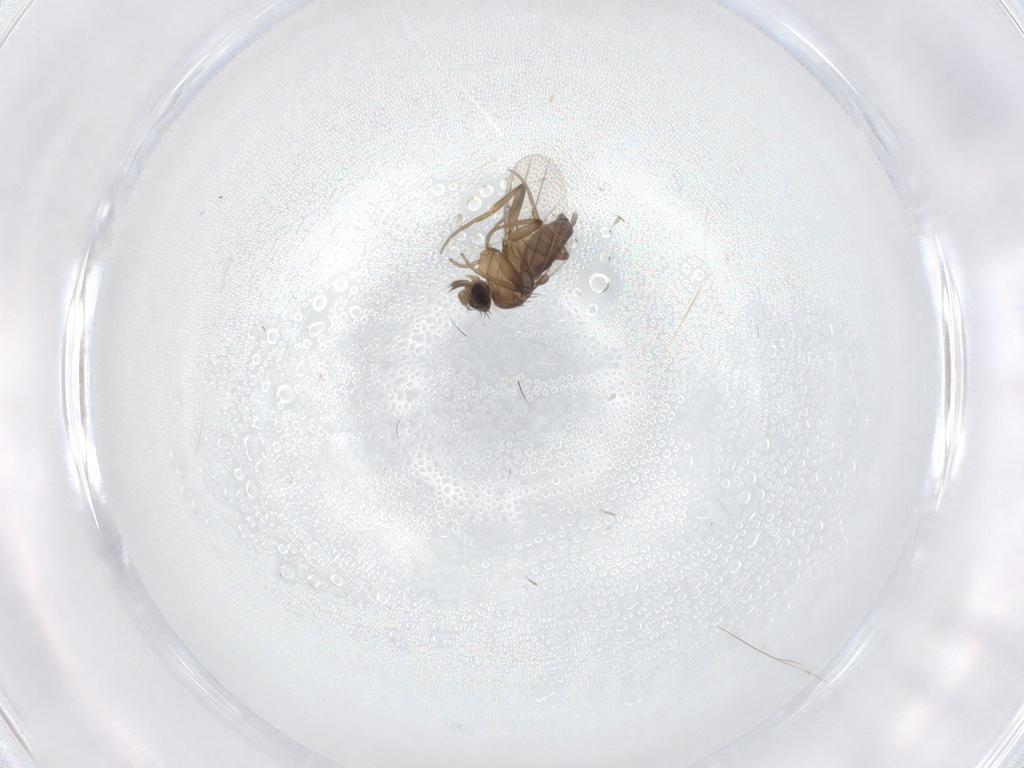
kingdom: Animalia
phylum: Arthropoda
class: Insecta
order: Diptera
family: Phoridae
